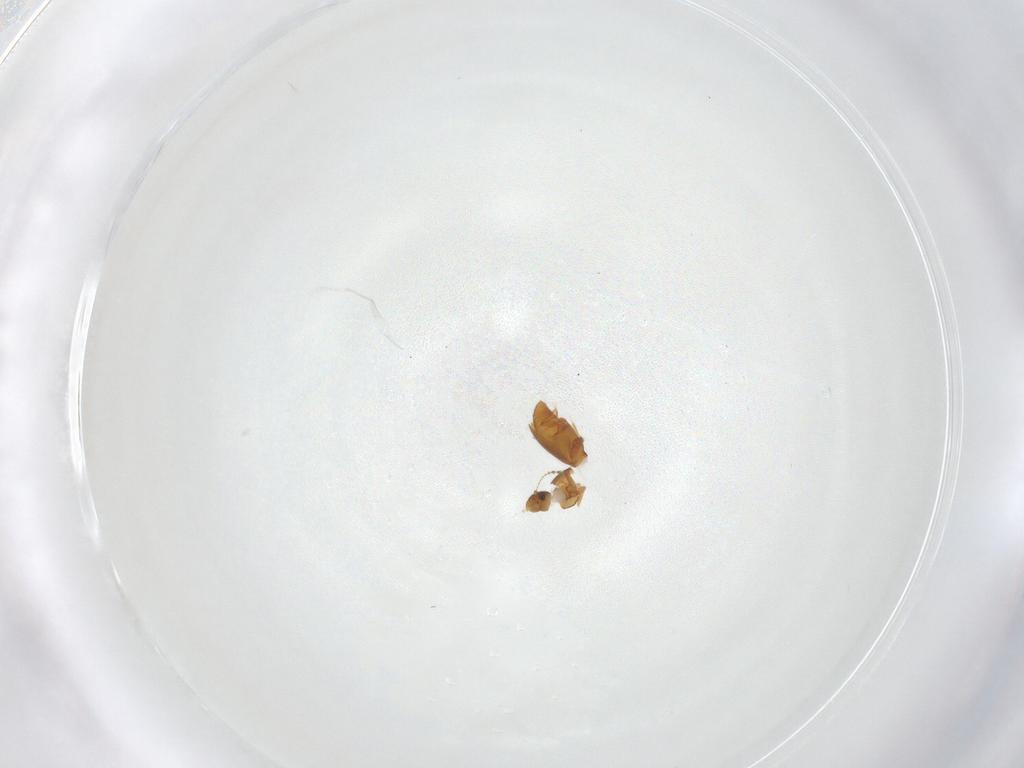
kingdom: Animalia
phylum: Arthropoda
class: Insecta
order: Coleoptera
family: Ptiliidae
